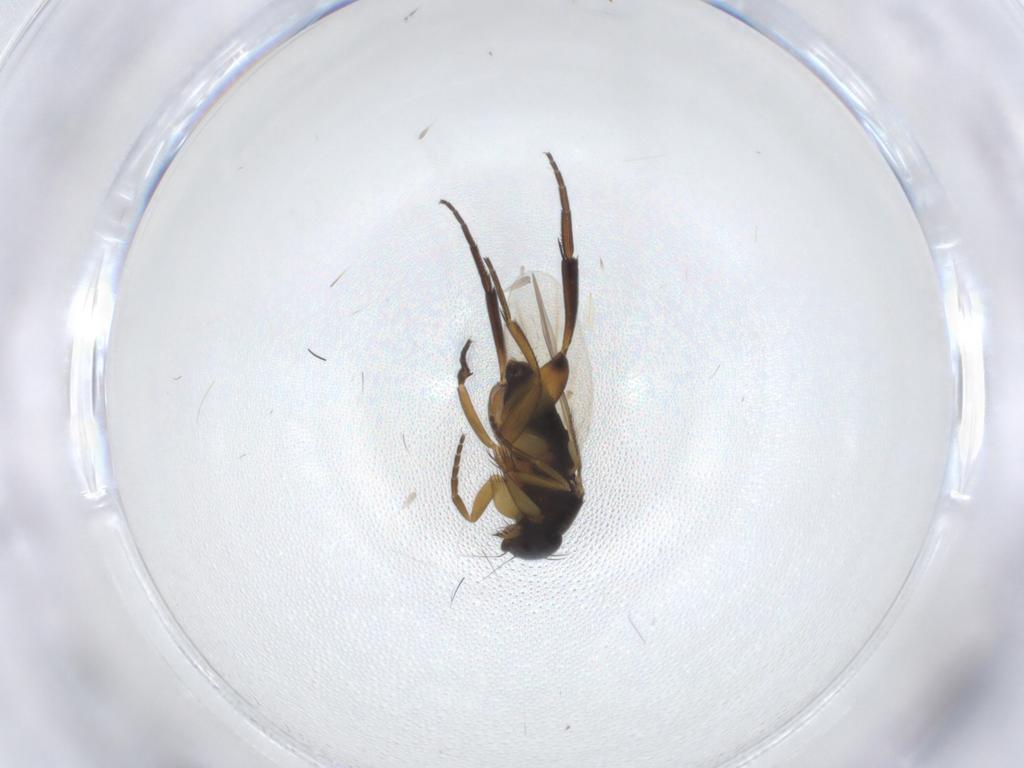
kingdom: Animalia
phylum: Arthropoda
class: Insecta
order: Diptera
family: Phoridae
